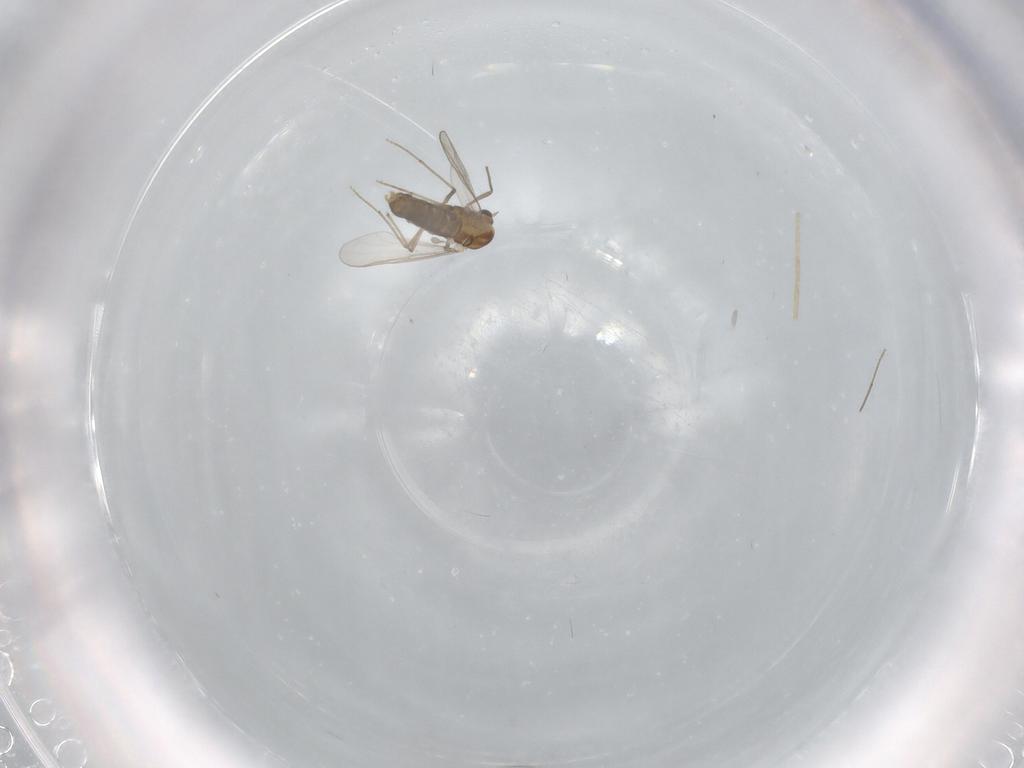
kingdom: Animalia
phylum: Arthropoda
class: Insecta
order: Diptera
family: Chironomidae
